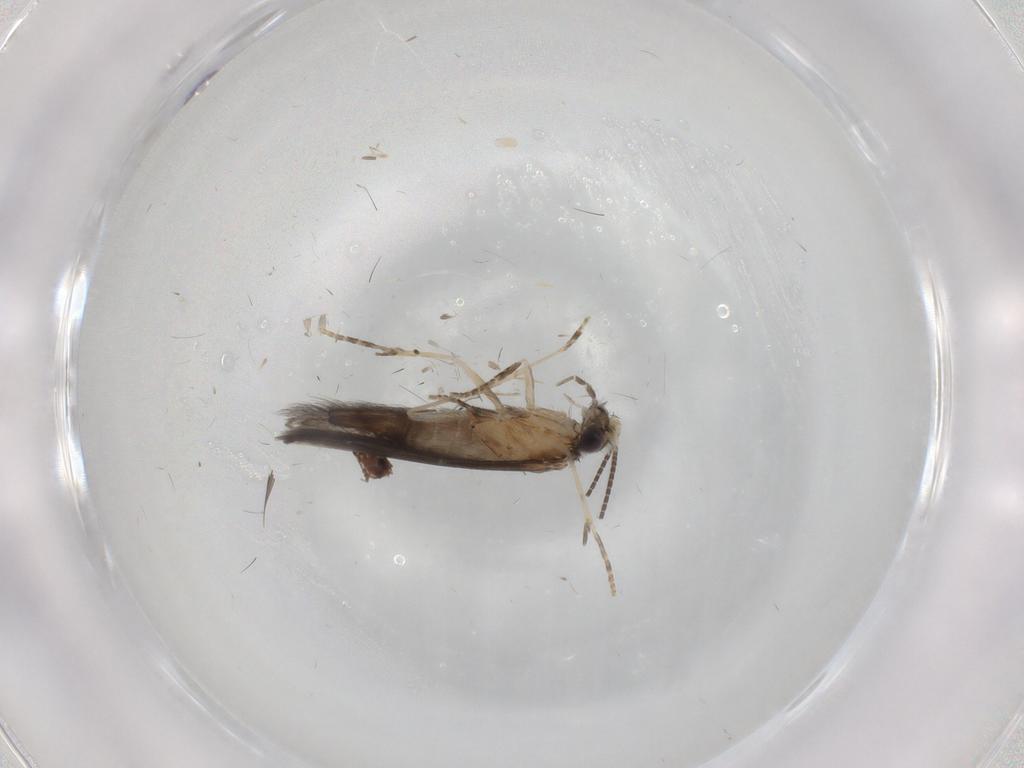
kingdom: Animalia
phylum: Arthropoda
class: Insecta
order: Trichoptera
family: Hydroptilidae
